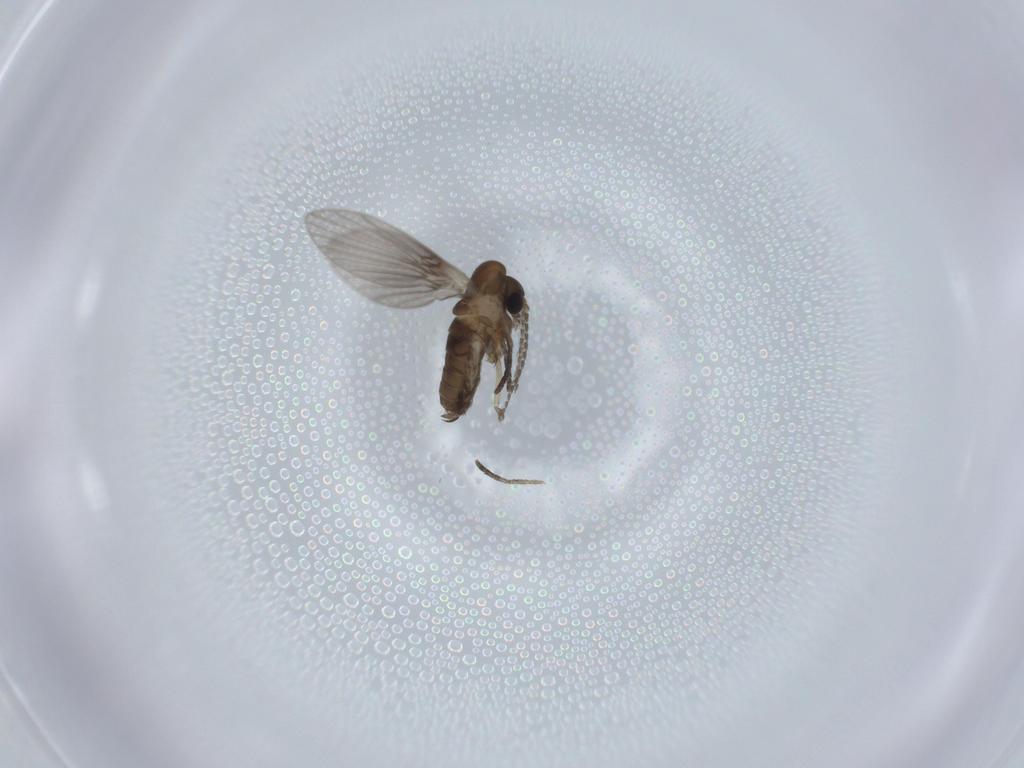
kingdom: Animalia
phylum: Arthropoda
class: Insecta
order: Diptera
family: Psychodidae
